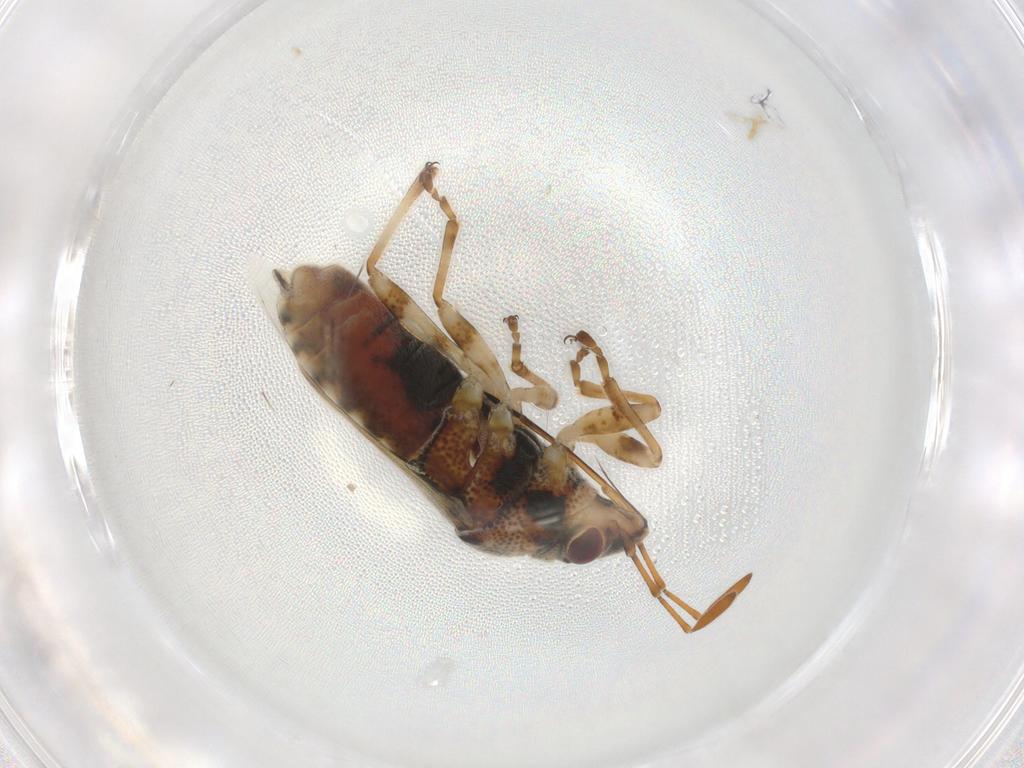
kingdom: Animalia
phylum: Arthropoda
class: Insecta
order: Hemiptera
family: Lygaeidae
